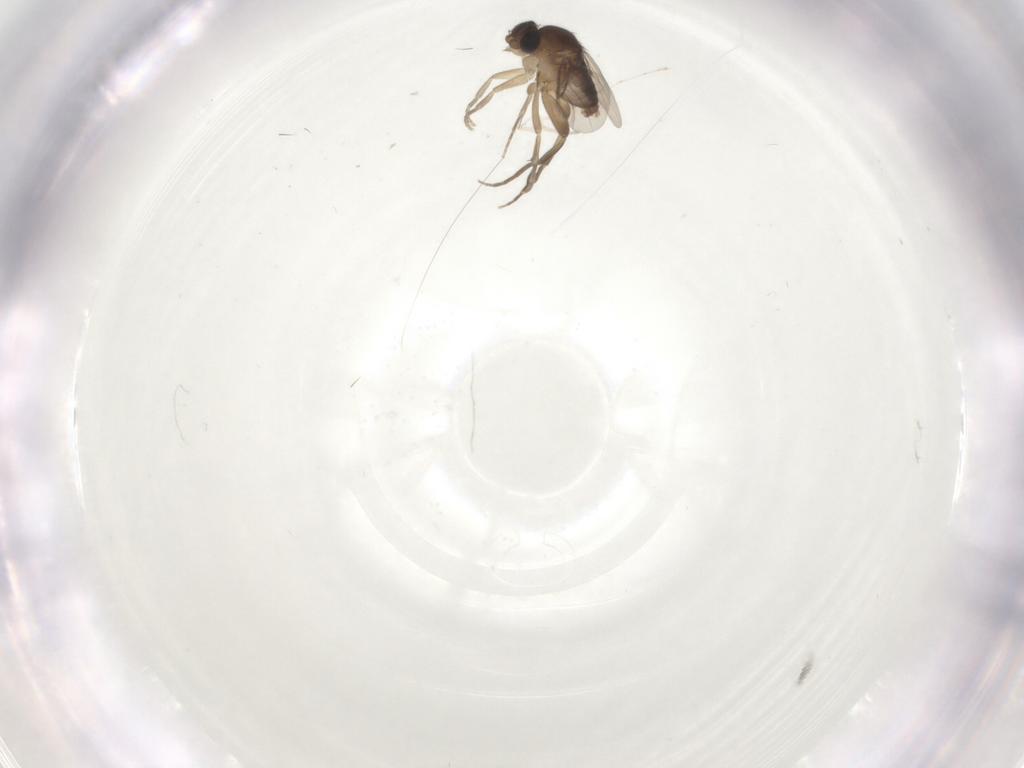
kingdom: Animalia
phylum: Arthropoda
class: Insecta
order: Diptera
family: Cecidomyiidae
